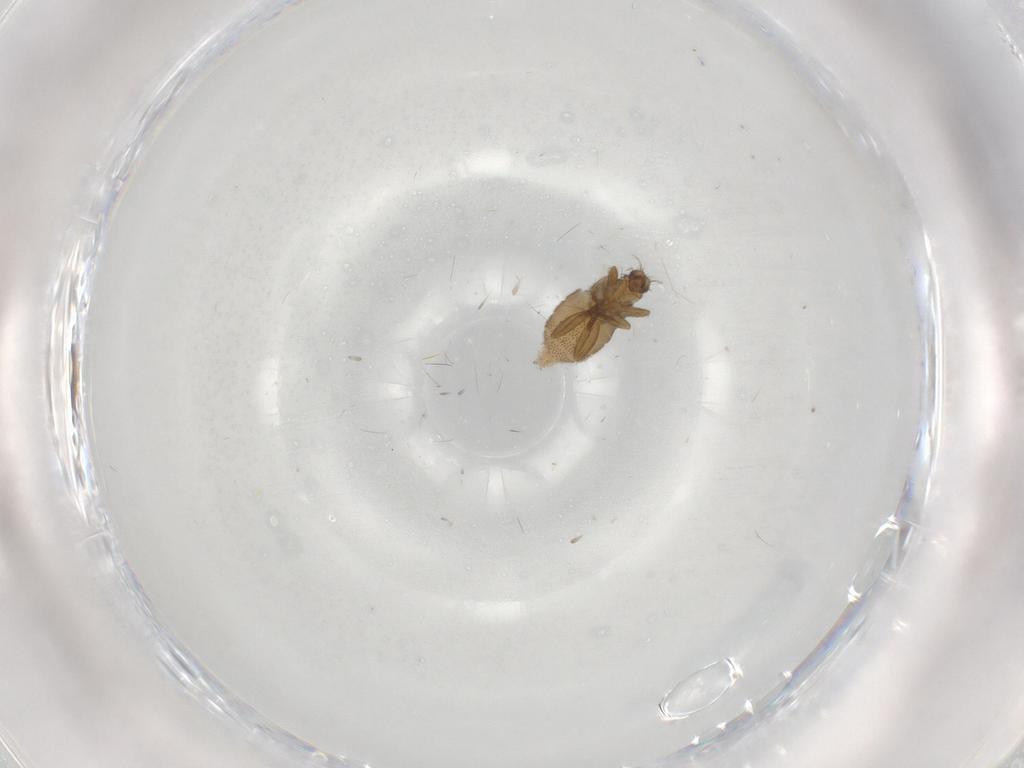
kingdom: Animalia
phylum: Arthropoda
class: Insecta
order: Diptera
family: Phoridae
